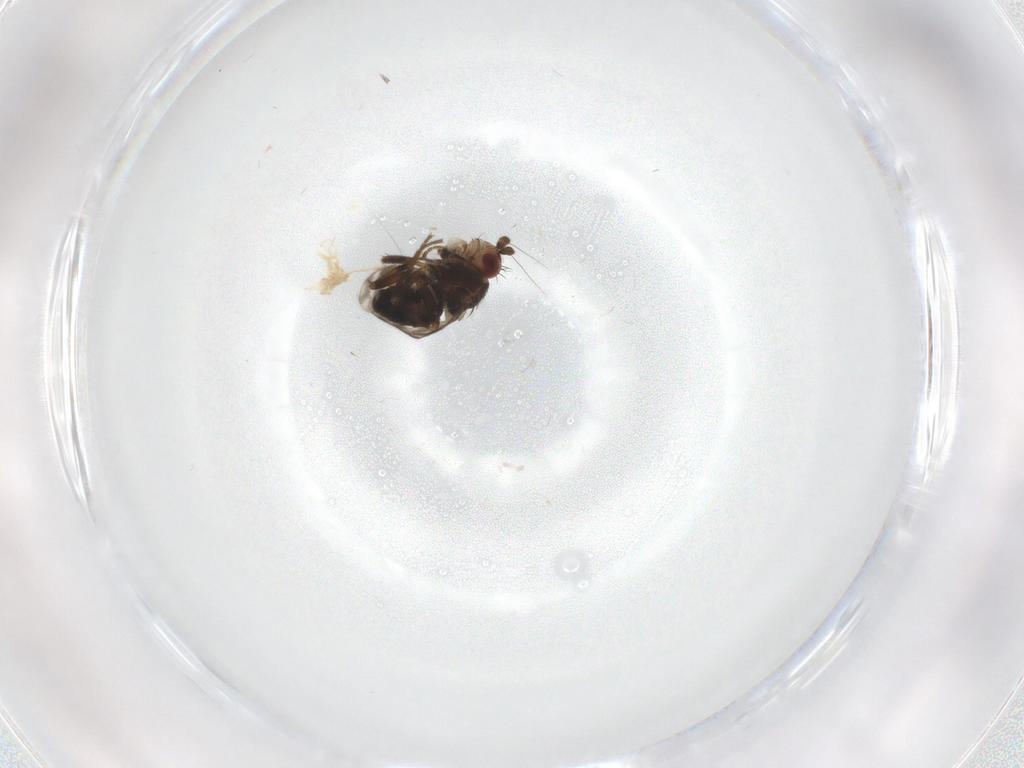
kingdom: Animalia
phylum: Arthropoda
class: Insecta
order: Diptera
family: Sphaeroceridae
